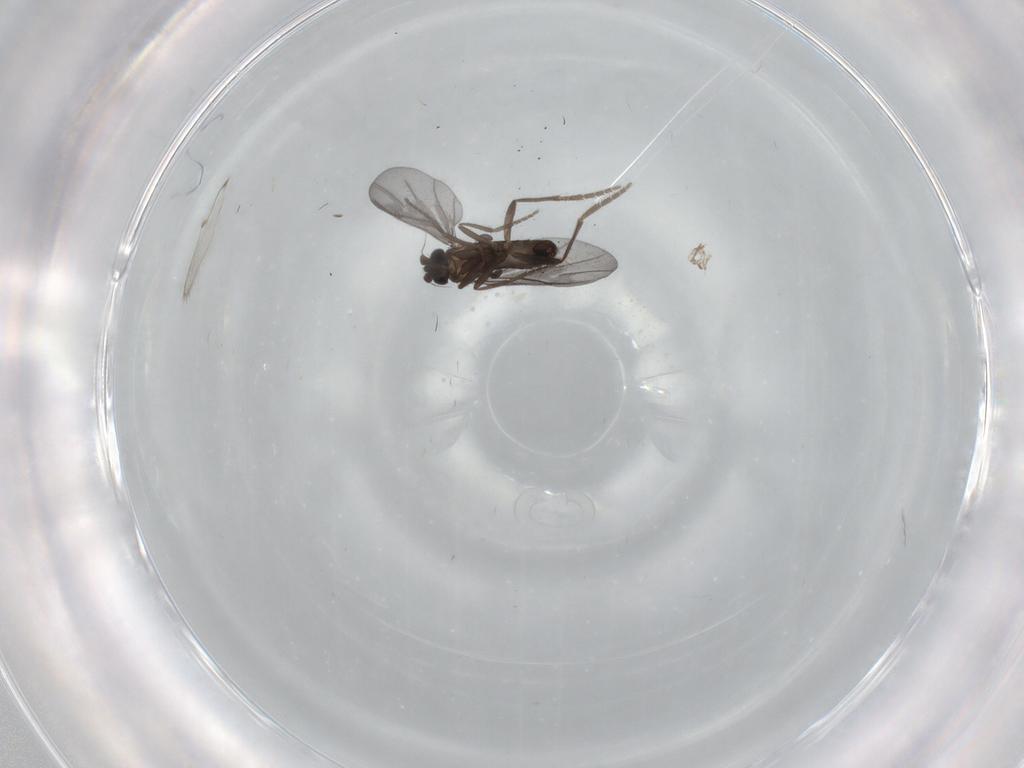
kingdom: Animalia
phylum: Arthropoda
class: Insecta
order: Diptera
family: Phoridae
